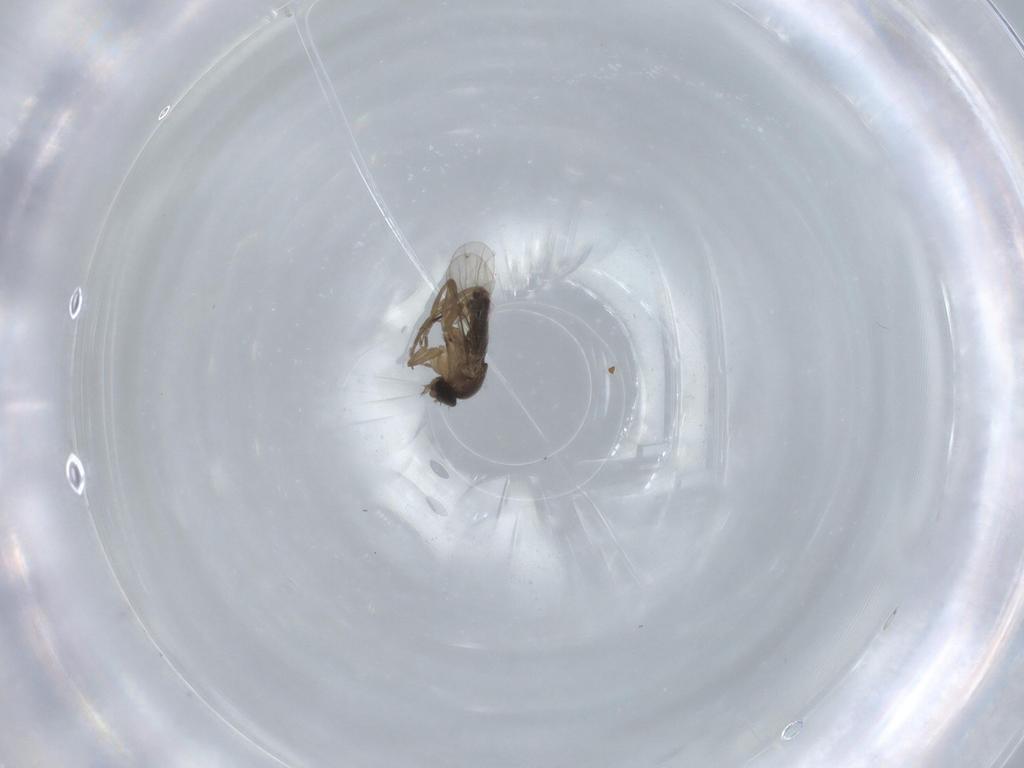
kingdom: Animalia
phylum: Arthropoda
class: Insecta
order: Diptera
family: Phoridae
